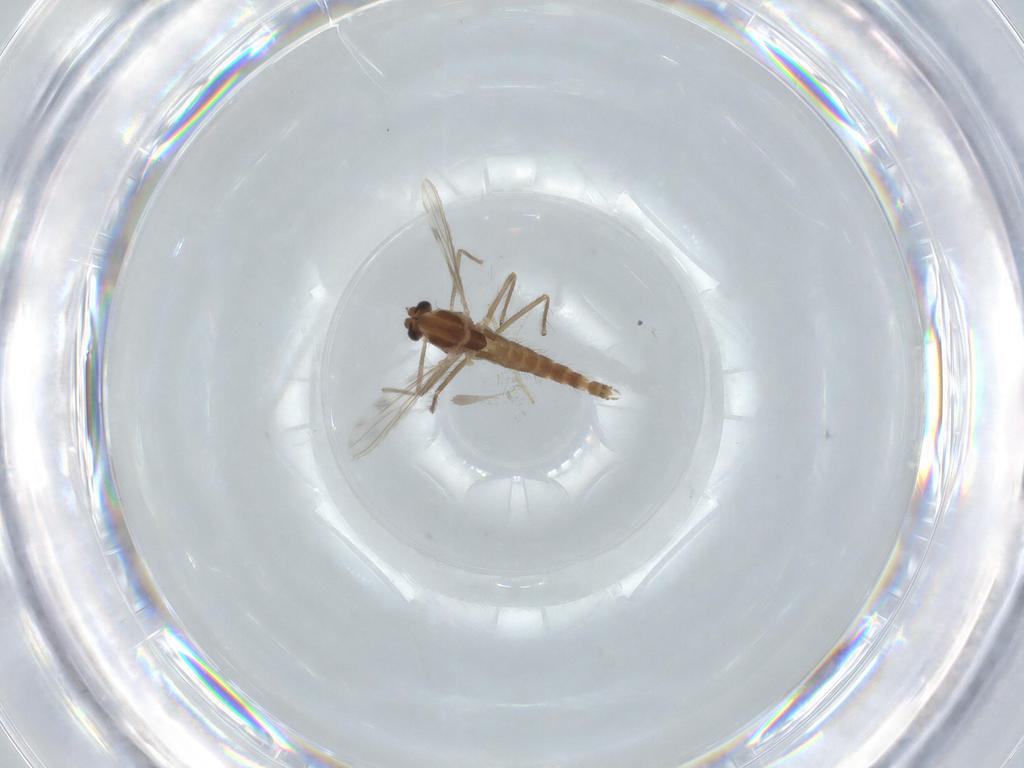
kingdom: Animalia
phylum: Arthropoda
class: Insecta
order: Diptera
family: Chironomidae
